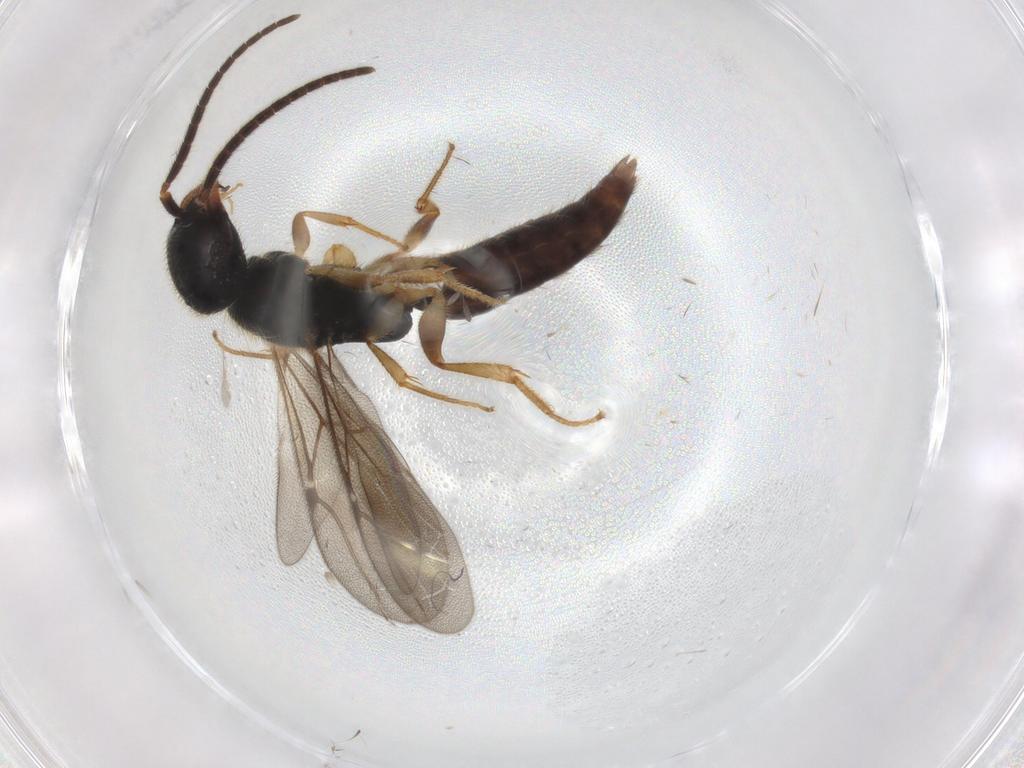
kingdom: Animalia
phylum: Arthropoda
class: Insecta
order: Hymenoptera
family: Bethylidae
